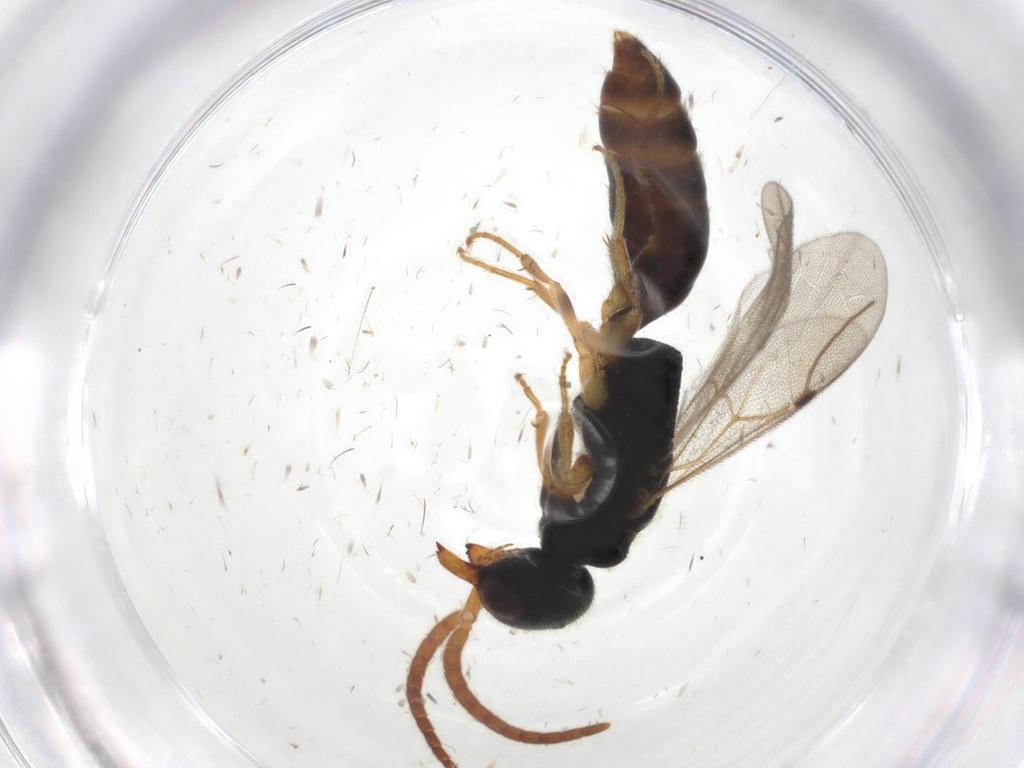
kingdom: Animalia
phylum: Arthropoda
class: Insecta
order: Hymenoptera
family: Bethylidae
